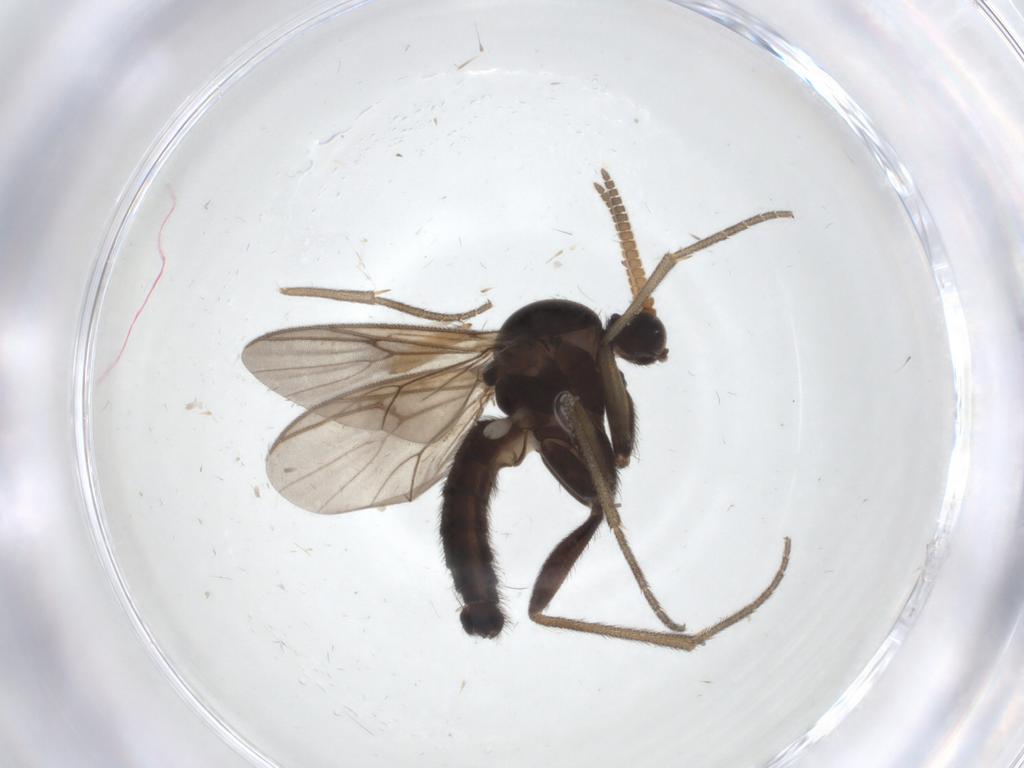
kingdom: Animalia
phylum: Arthropoda
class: Insecta
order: Diptera
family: Mycetophilidae
